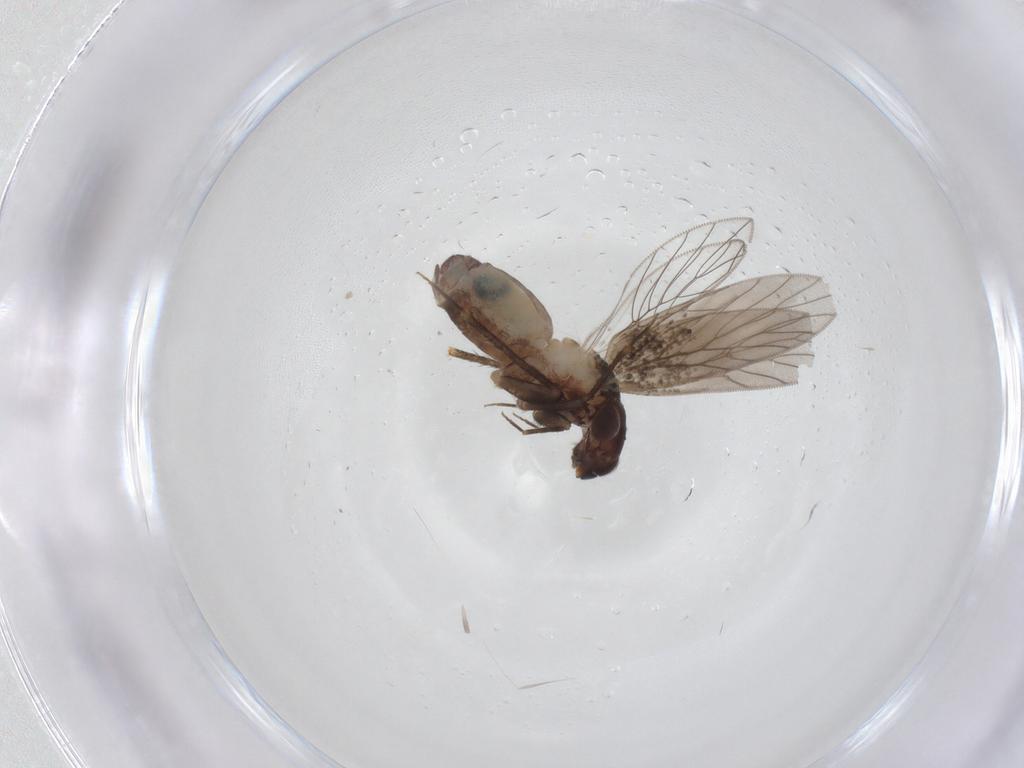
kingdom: Animalia
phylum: Arthropoda
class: Insecta
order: Psocodea
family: Lepidopsocidae
